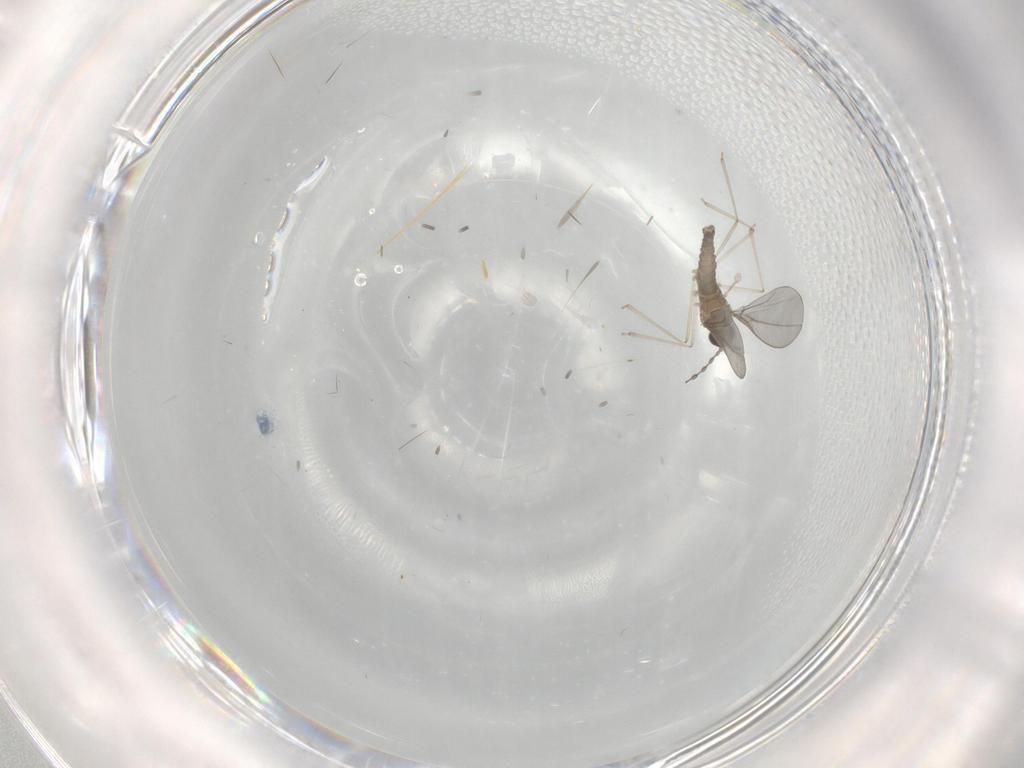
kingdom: Animalia
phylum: Arthropoda
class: Insecta
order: Diptera
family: Cecidomyiidae
